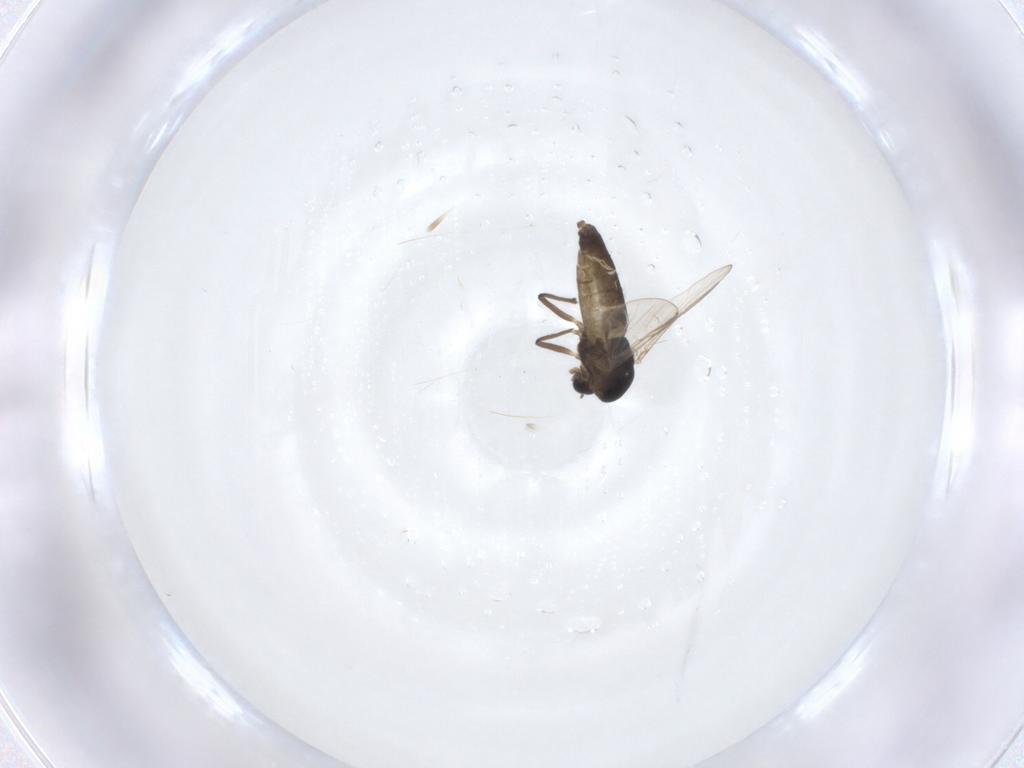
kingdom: Animalia
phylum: Arthropoda
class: Insecta
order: Diptera
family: Chironomidae
